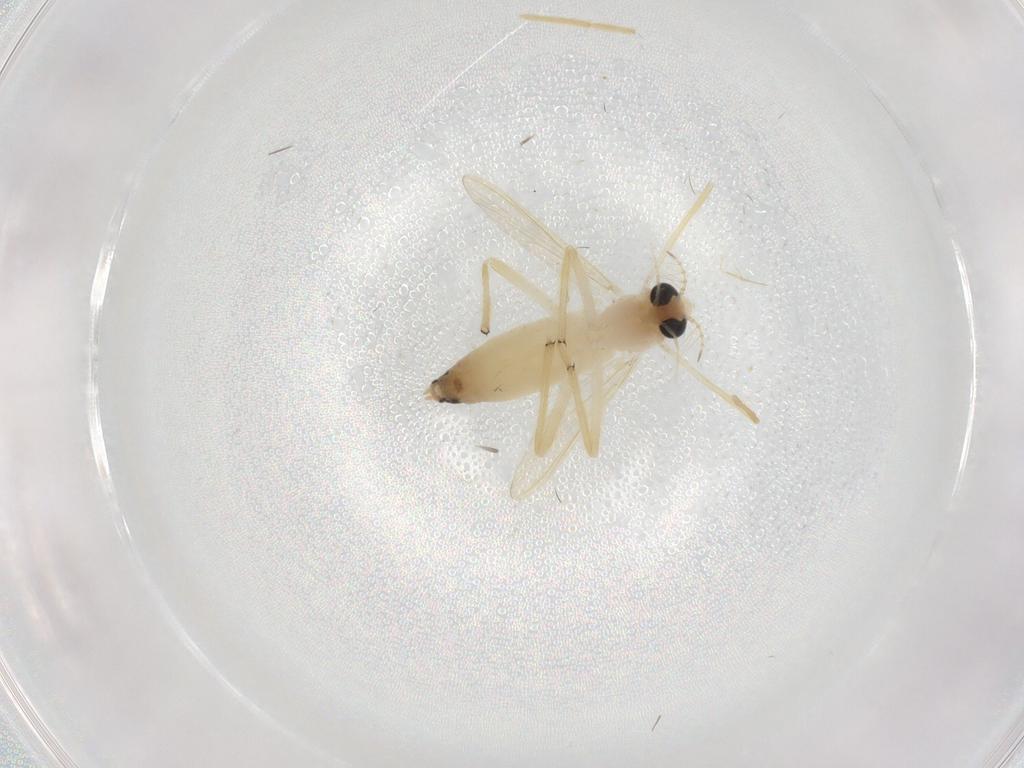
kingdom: Animalia
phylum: Arthropoda
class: Insecta
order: Diptera
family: Chironomidae
